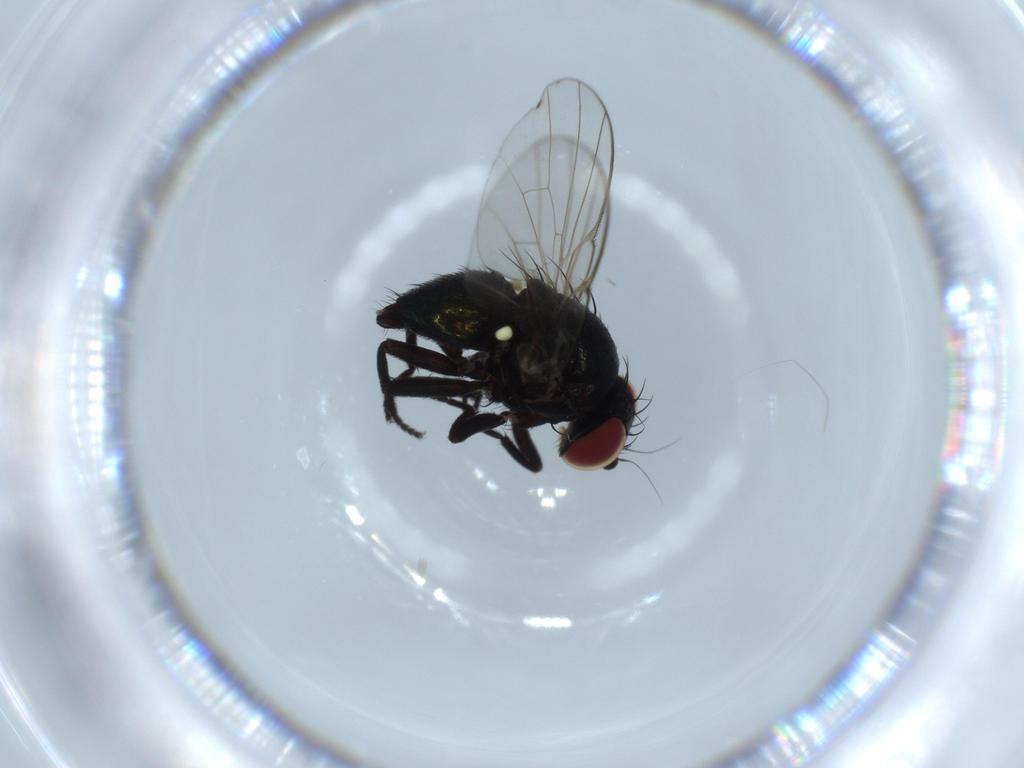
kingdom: Animalia
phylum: Arthropoda
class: Insecta
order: Diptera
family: Agromyzidae
